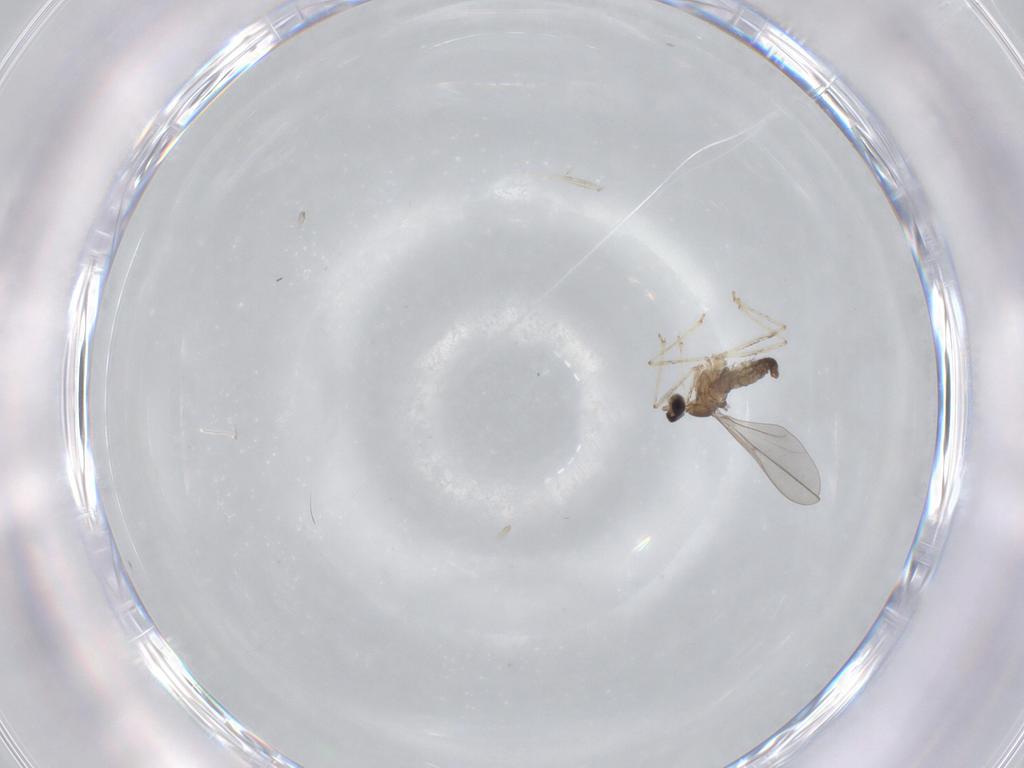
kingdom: Animalia
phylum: Arthropoda
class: Insecta
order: Diptera
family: Cecidomyiidae
